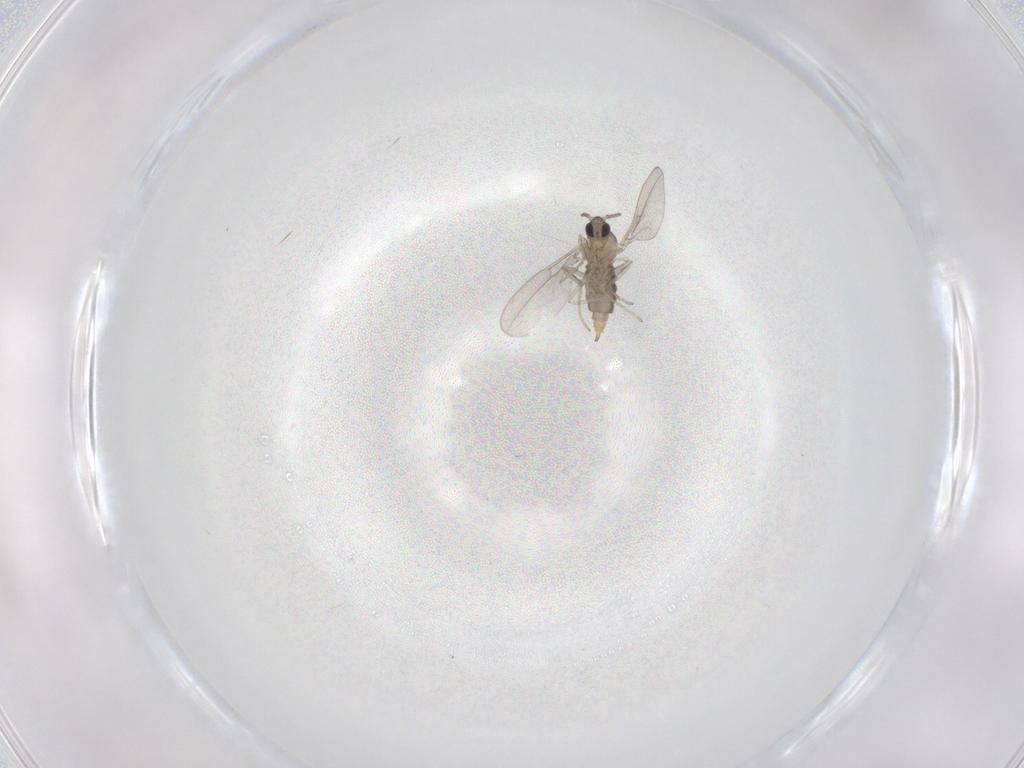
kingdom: Animalia
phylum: Arthropoda
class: Insecta
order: Diptera
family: Cecidomyiidae
